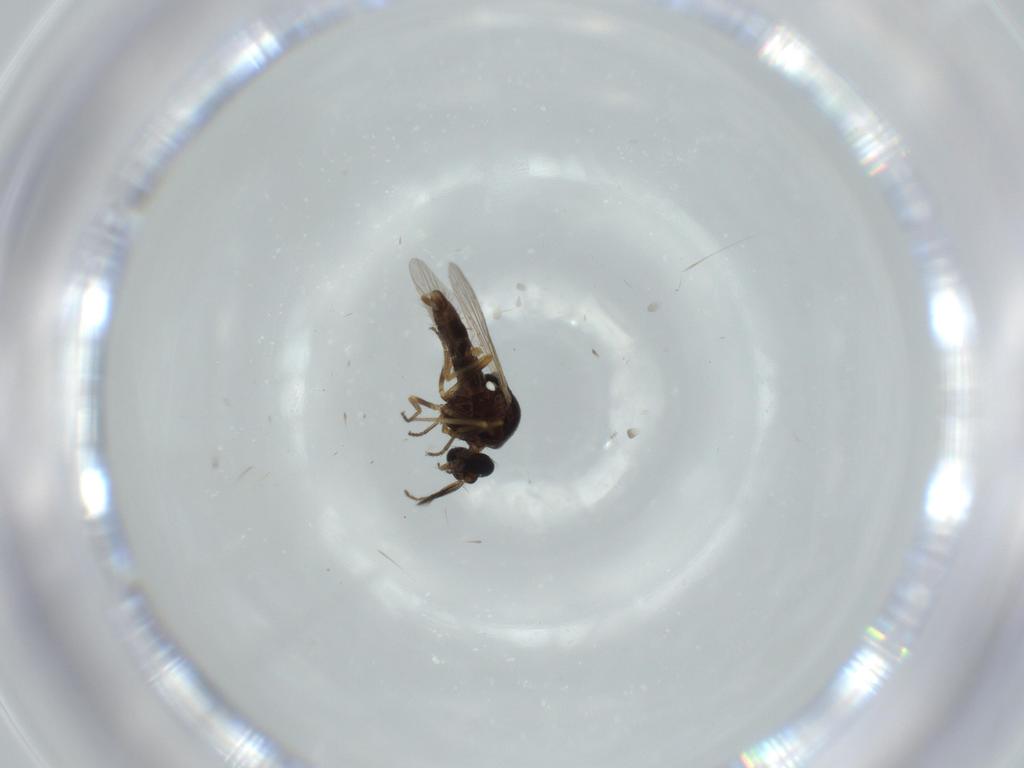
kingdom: Animalia
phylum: Arthropoda
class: Insecta
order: Diptera
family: Ceratopogonidae
